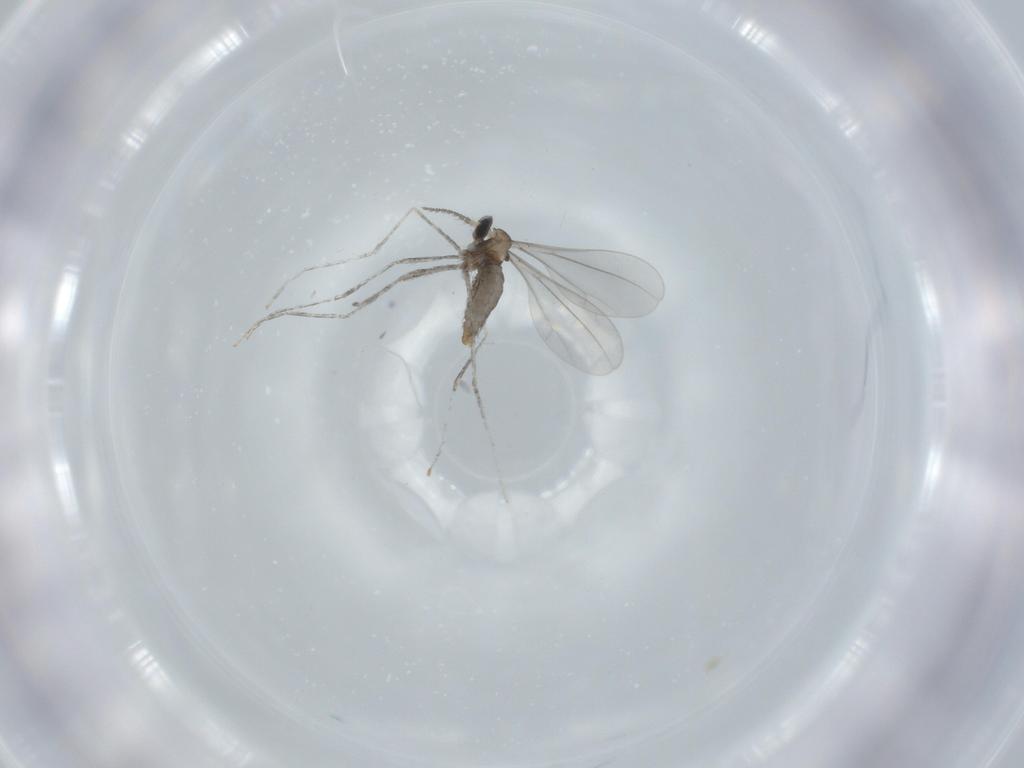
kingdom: Animalia
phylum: Arthropoda
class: Insecta
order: Diptera
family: Cecidomyiidae
